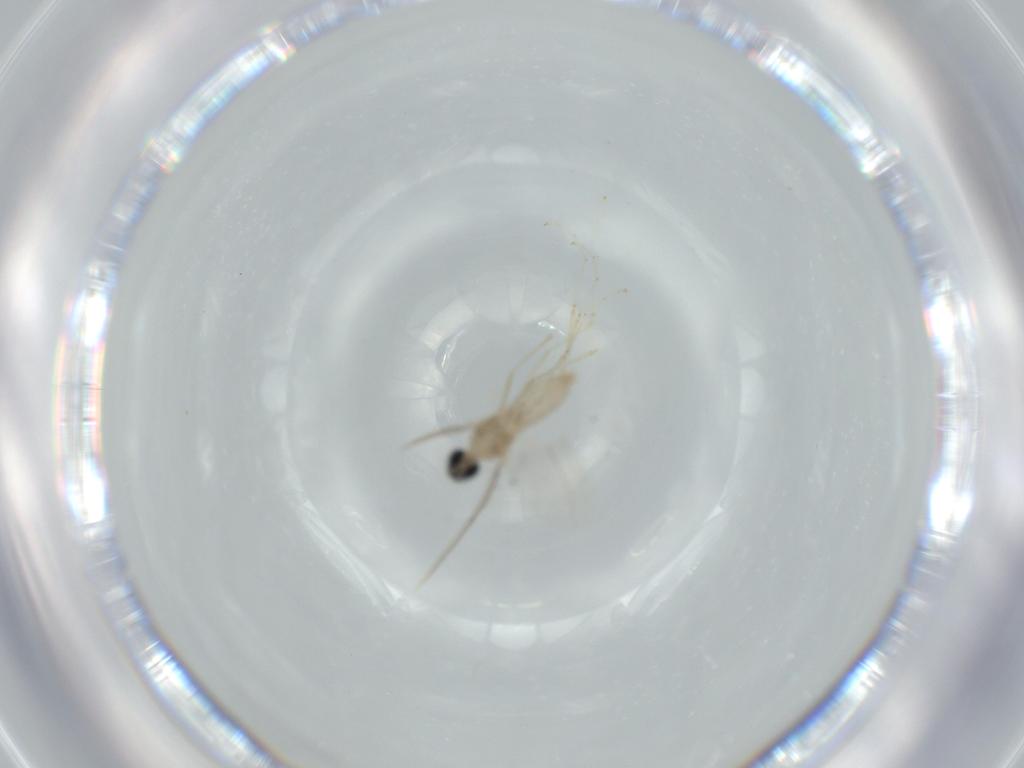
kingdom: Animalia
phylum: Arthropoda
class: Insecta
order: Diptera
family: Cecidomyiidae
